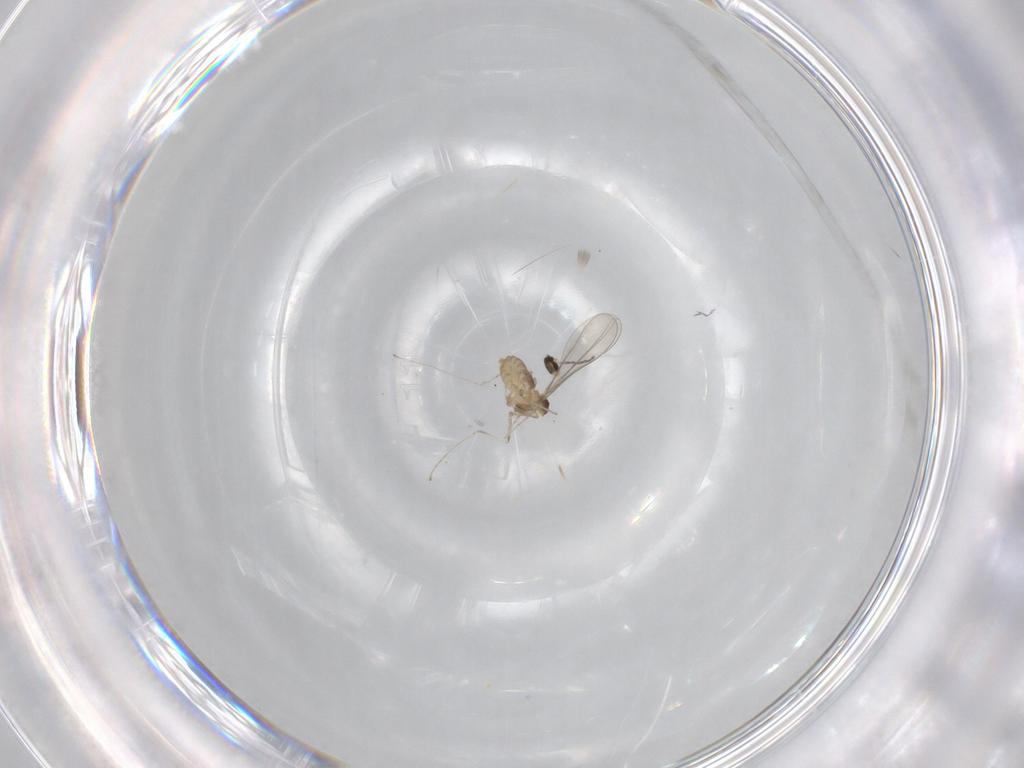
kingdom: Animalia
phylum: Arthropoda
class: Insecta
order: Diptera
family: Cecidomyiidae
